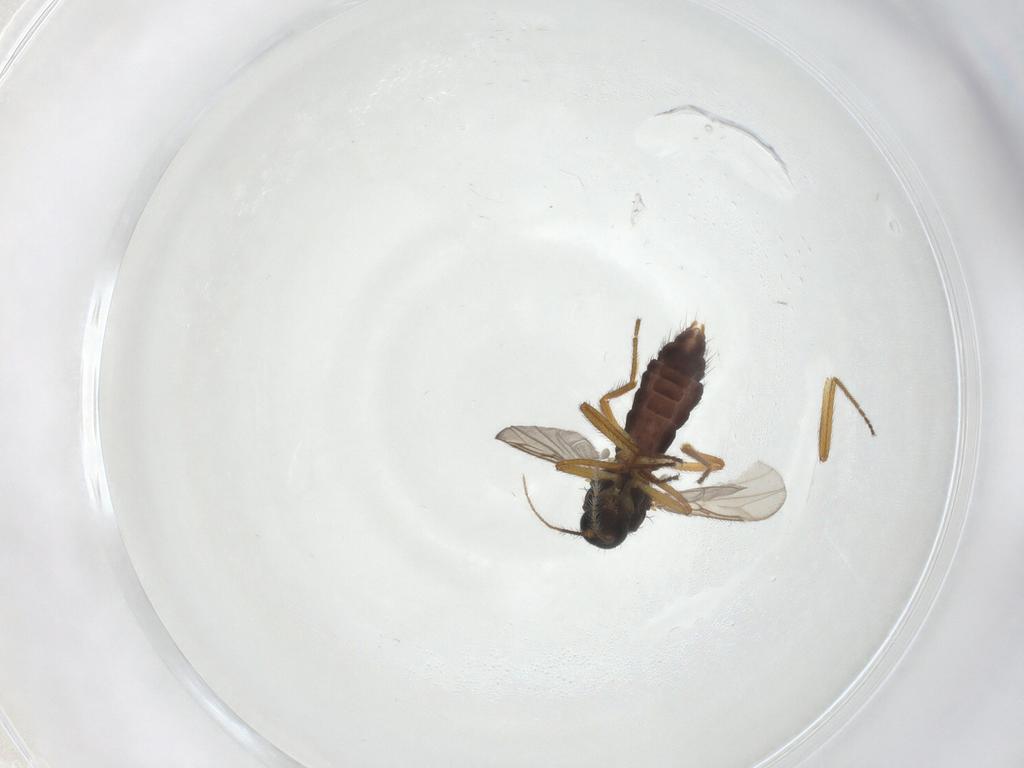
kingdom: Animalia
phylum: Arthropoda
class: Insecta
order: Diptera
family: Ceratopogonidae
